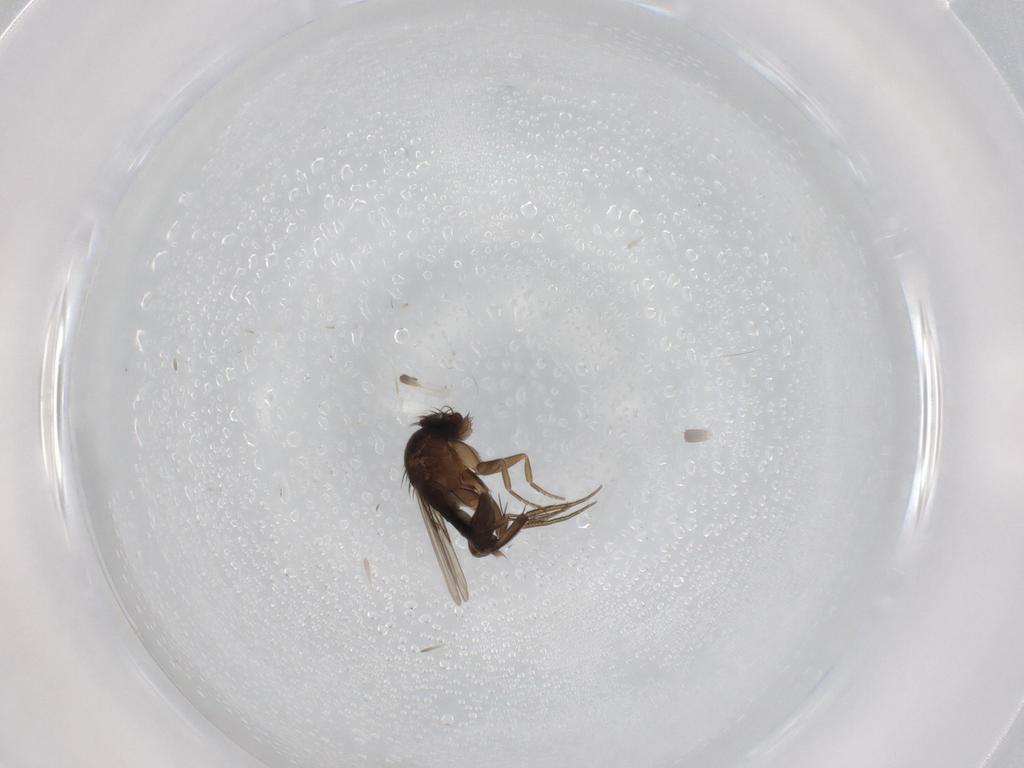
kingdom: Animalia
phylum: Arthropoda
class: Insecta
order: Diptera
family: Phoridae
